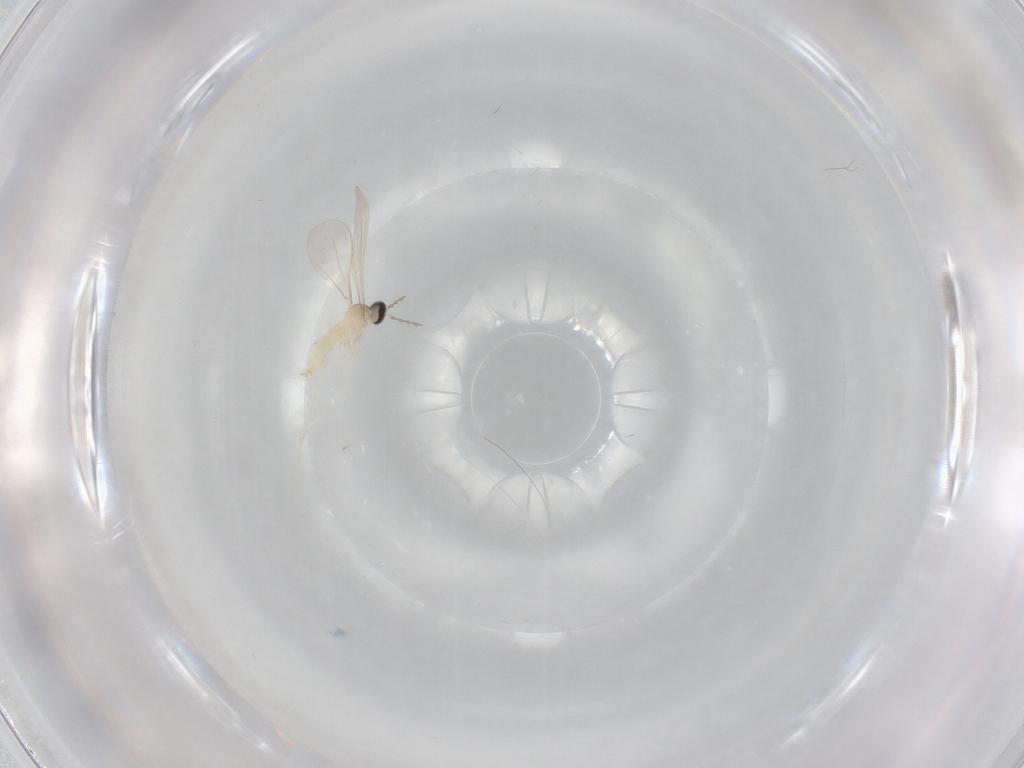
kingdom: Animalia
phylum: Arthropoda
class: Insecta
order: Diptera
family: Cecidomyiidae
